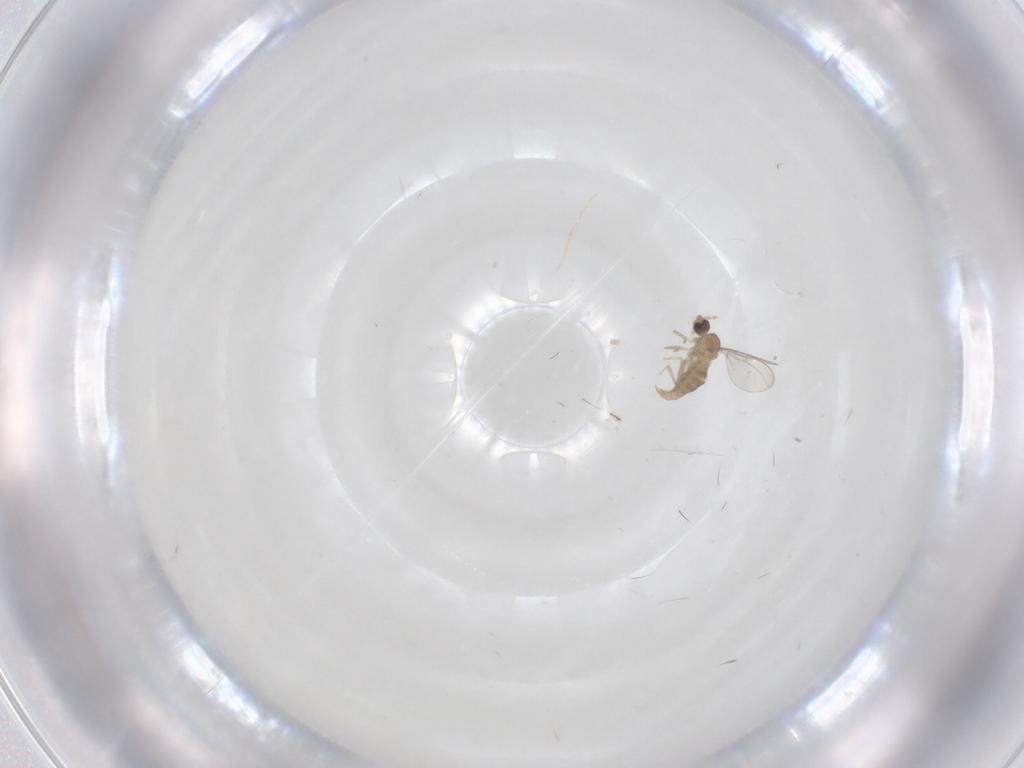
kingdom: Animalia
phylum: Arthropoda
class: Insecta
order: Diptera
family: Cecidomyiidae
